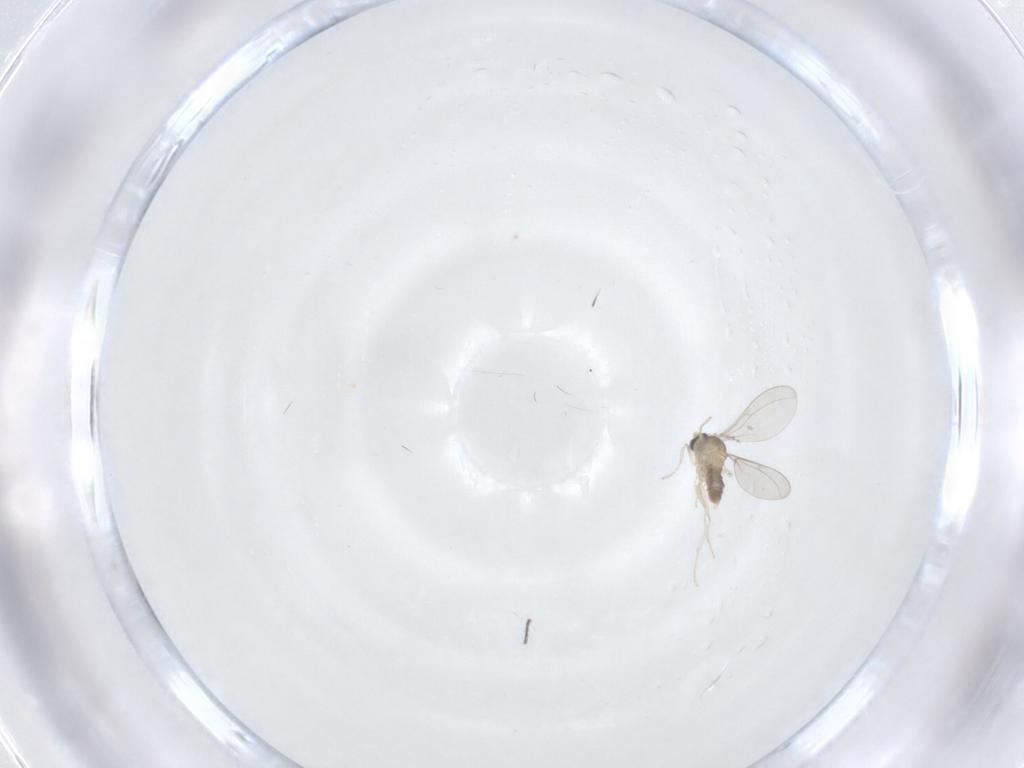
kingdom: Animalia
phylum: Arthropoda
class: Insecta
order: Diptera
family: Cecidomyiidae
